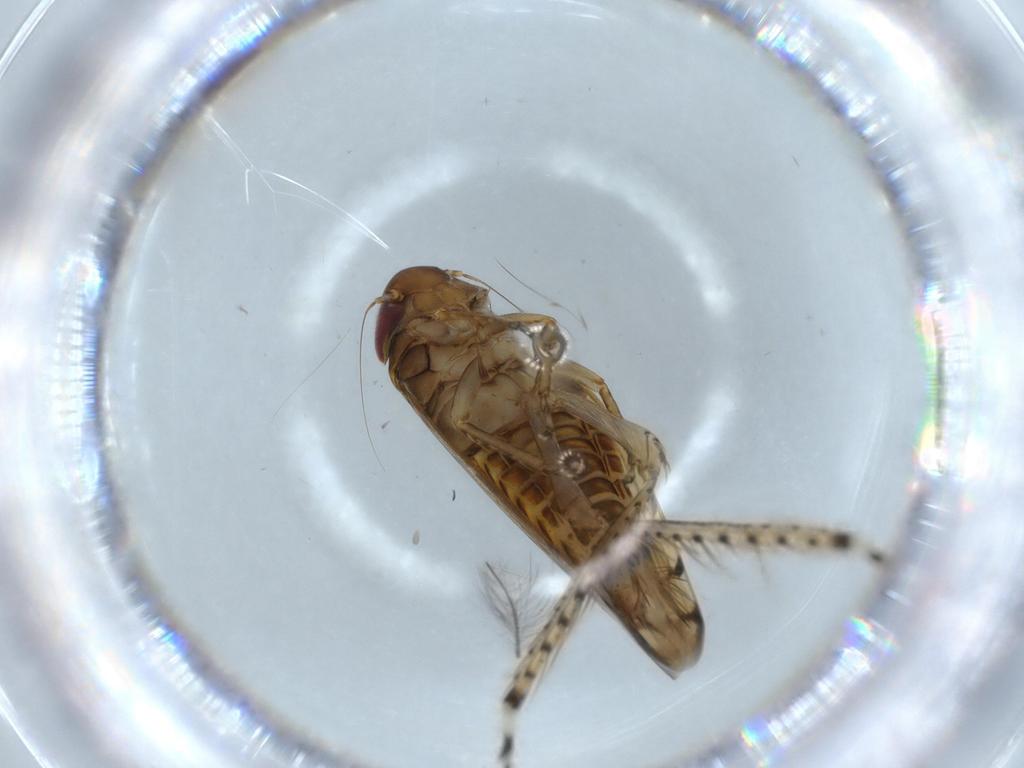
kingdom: Animalia
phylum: Arthropoda
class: Insecta
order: Hemiptera
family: Cicadellidae
